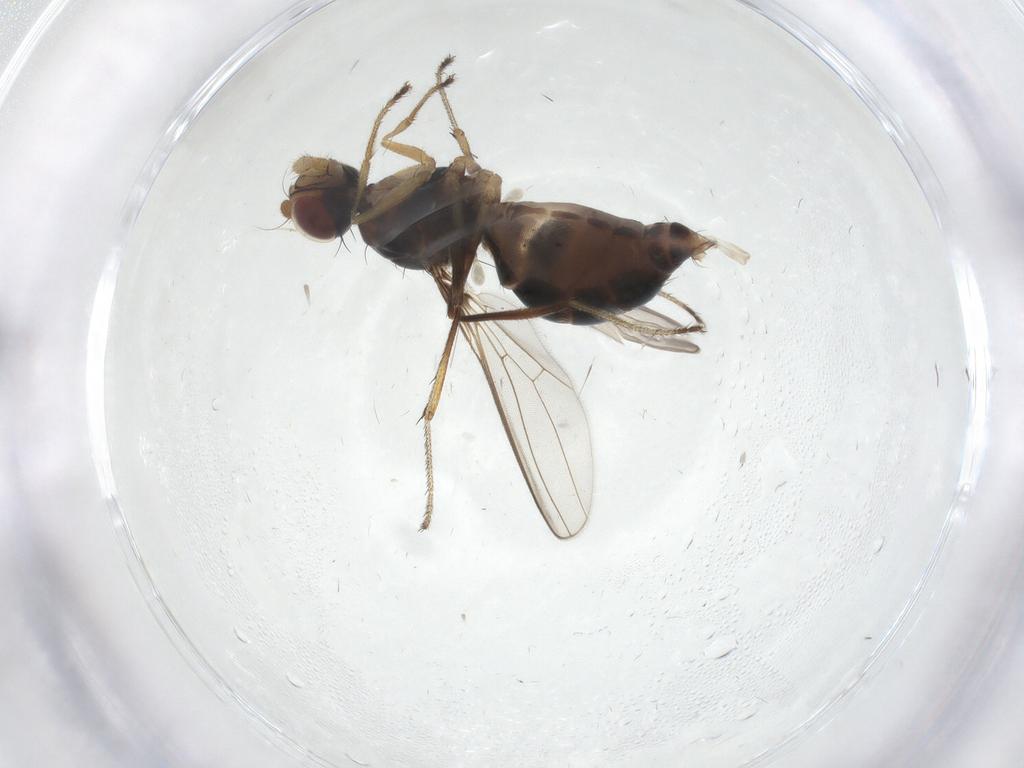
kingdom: Animalia
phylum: Arthropoda
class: Insecta
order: Diptera
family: Sepsidae
